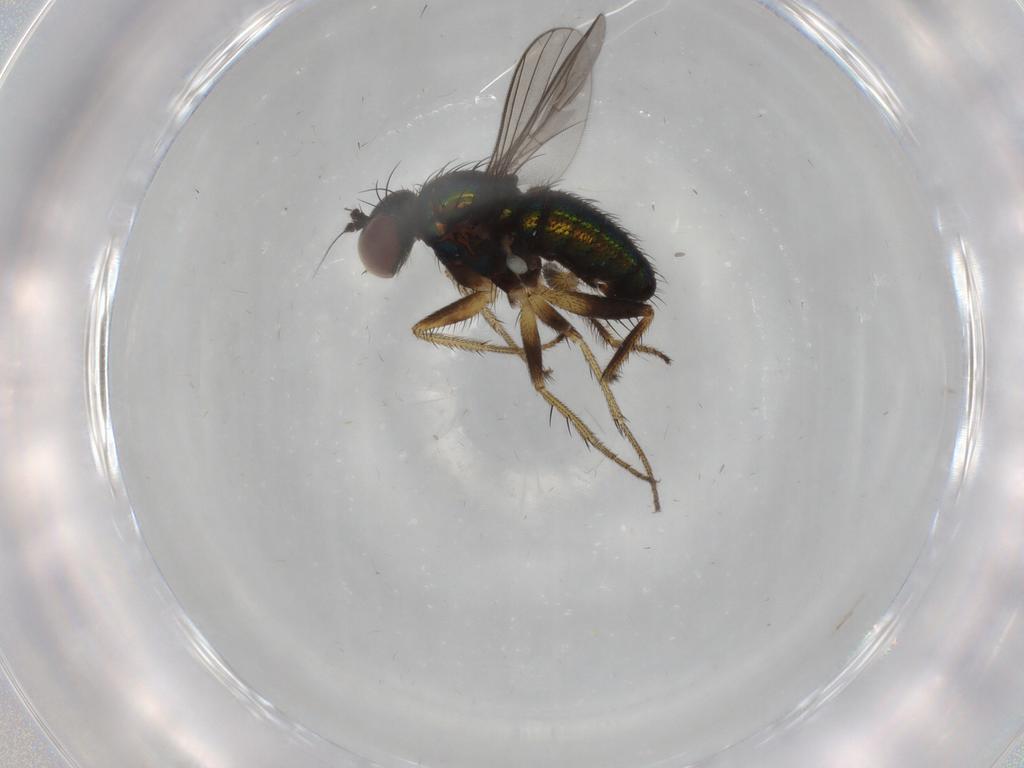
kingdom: Animalia
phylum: Arthropoda
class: Insecta
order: Diptera
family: Dolichopodidae
